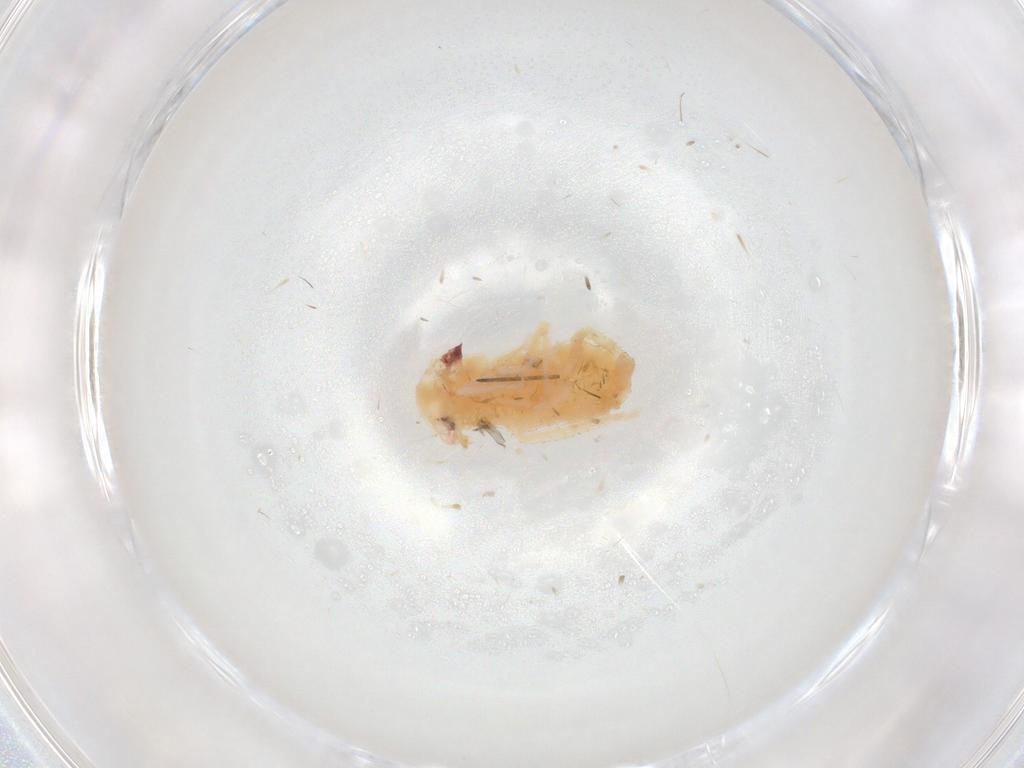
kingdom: Animalia
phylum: Arthropoda
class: Insecta
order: Hemiptera
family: Cicadellidae
